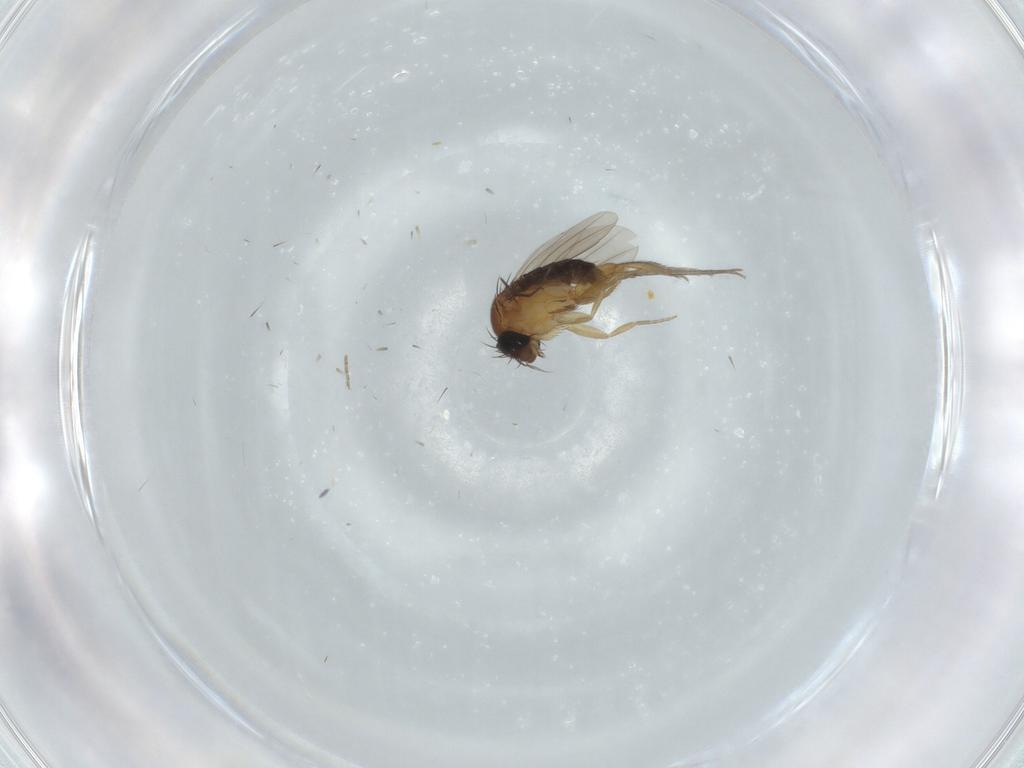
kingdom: Animalia
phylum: Arthropoda
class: Insecta
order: Diptera
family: Phoridae
